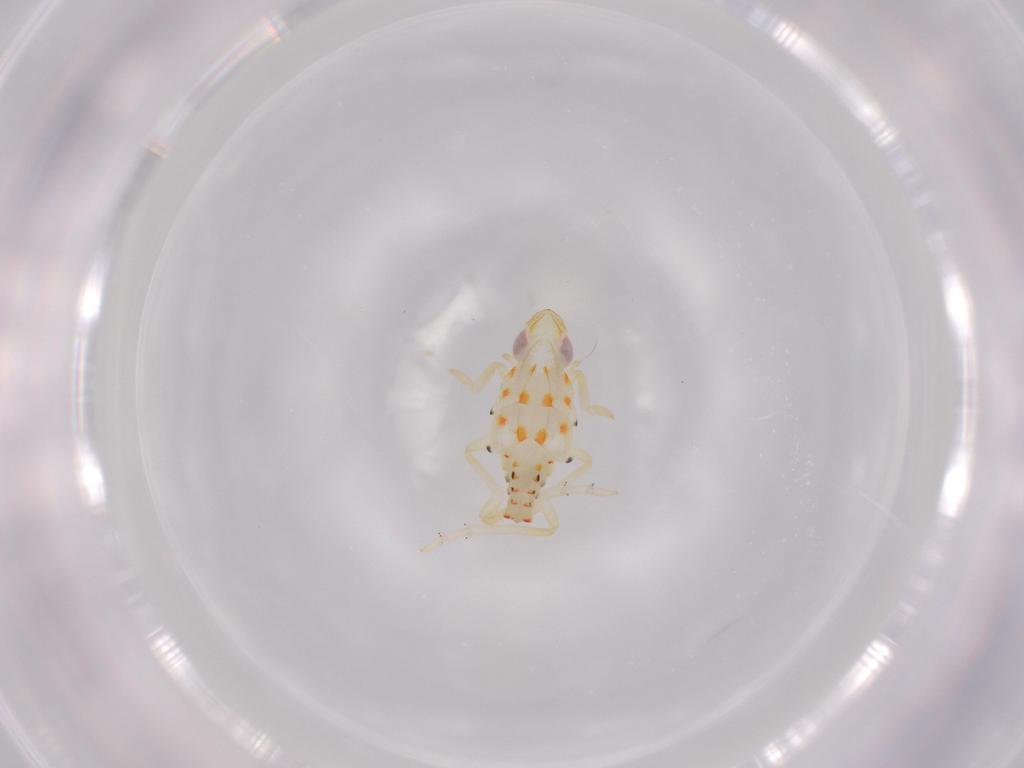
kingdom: Animalia
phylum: Arthropoda
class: Insecta
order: Hemiptera
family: Tropiduchidae
